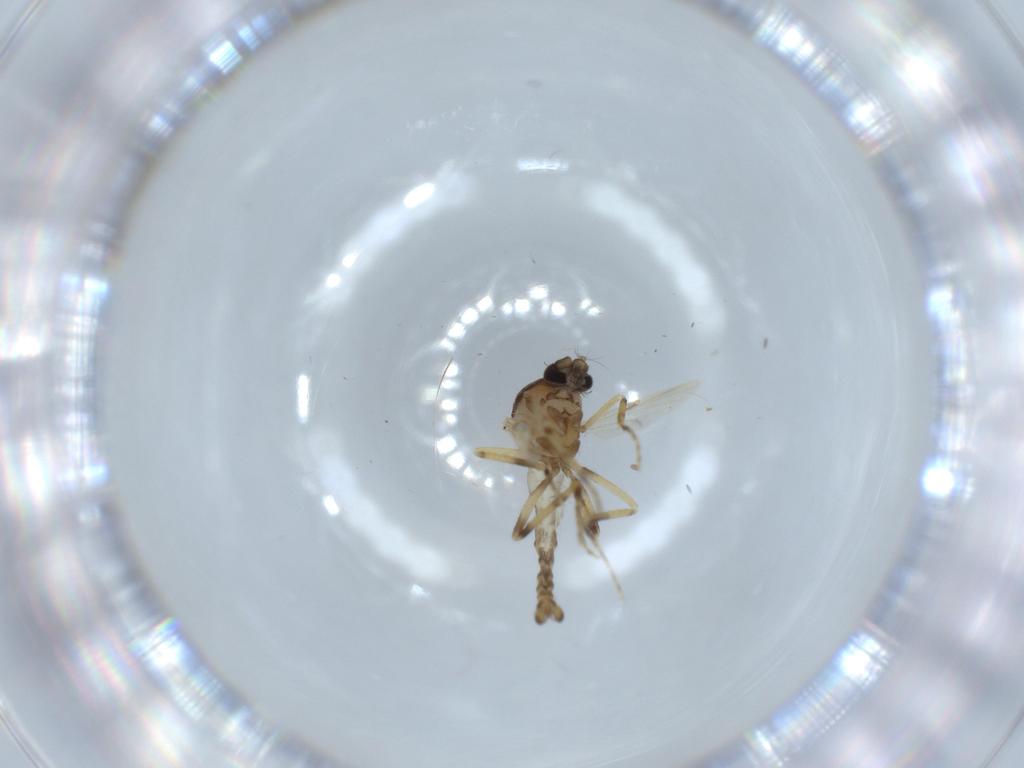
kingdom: Animalia
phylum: Arthropoda
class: Insecta
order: Diptera
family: Ceratopogonidae
